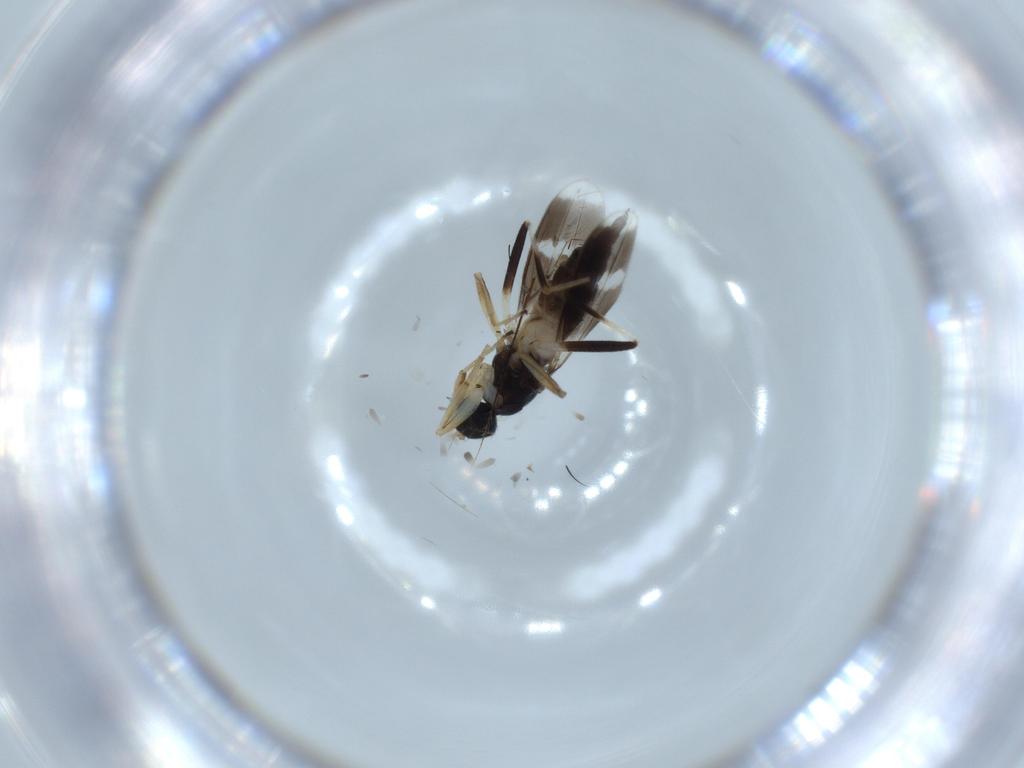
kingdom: Animalia
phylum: Arthropoda
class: Insecta
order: Diptera
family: Hybotidae
